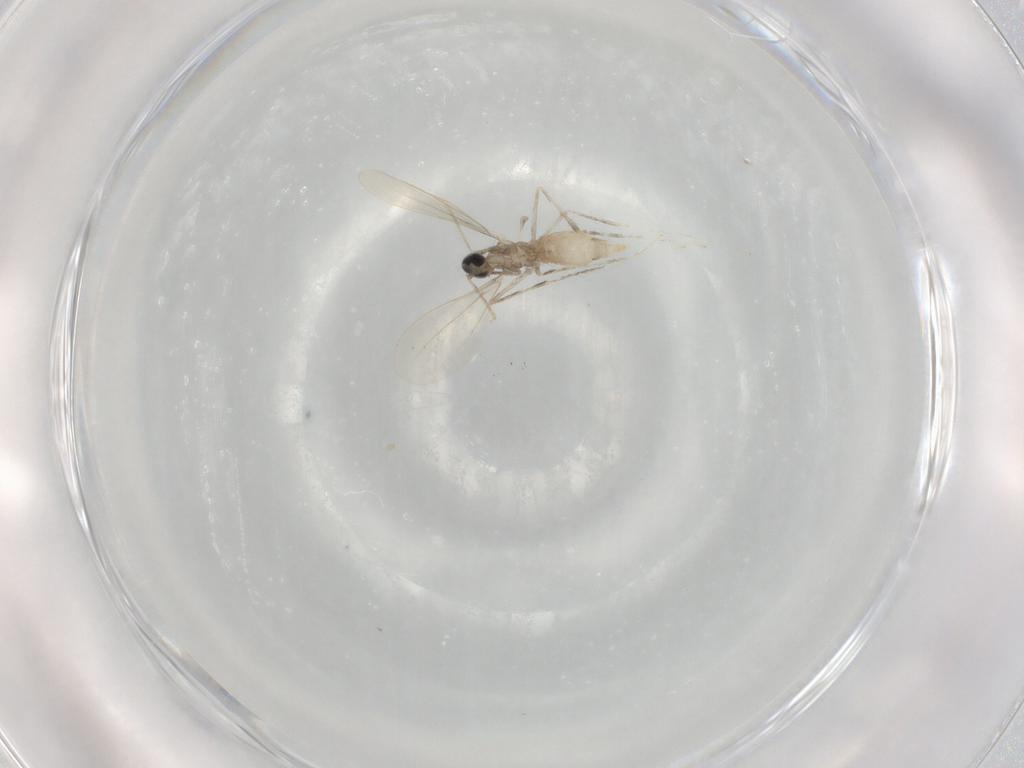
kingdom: Animalia
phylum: Arthropoda
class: Insecta
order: Diptera
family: Cecidomyiidae
